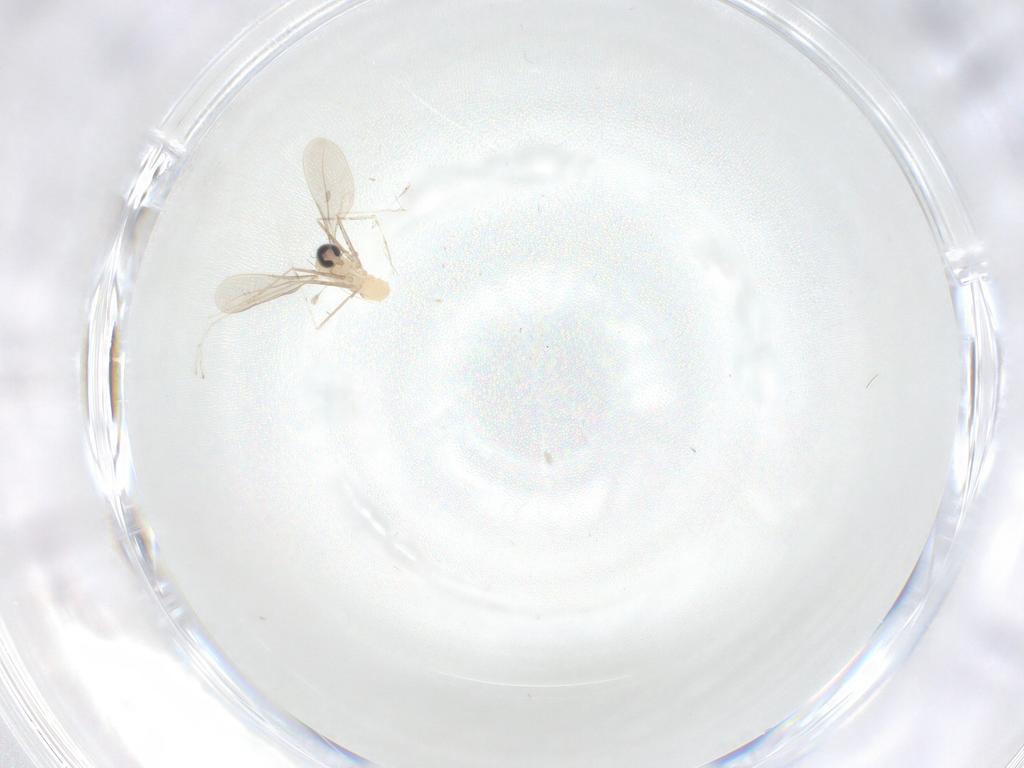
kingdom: Animalia
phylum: Arthropoda
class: Insecta
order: Diptera
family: Cecidomyiidae
